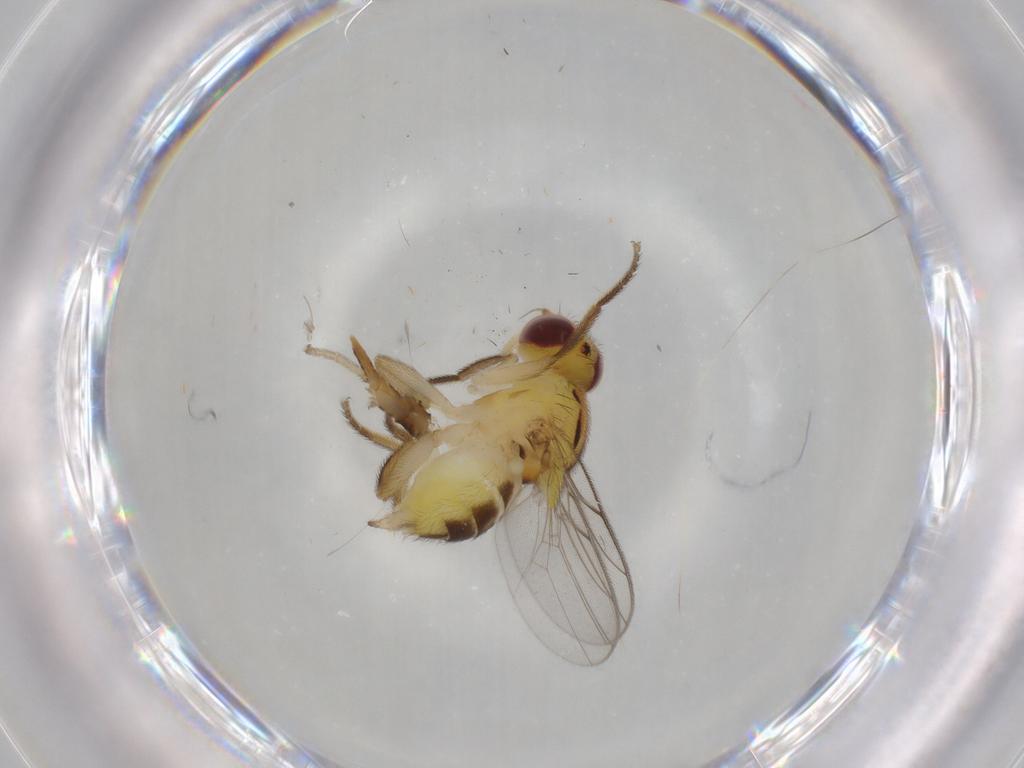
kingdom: Animalia
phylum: Arthropoda
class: Insecta
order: Diptera
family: Chloropidae
